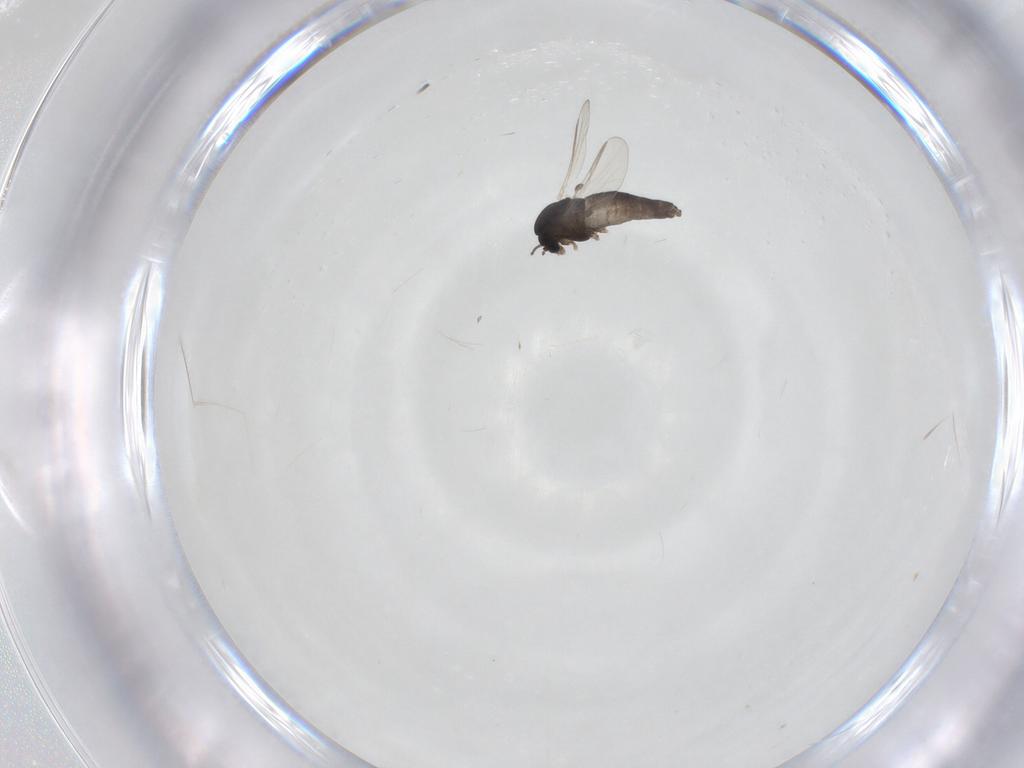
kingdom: Animalia
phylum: Arthropoda
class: Insecta
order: Diptera
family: Chironomidae
